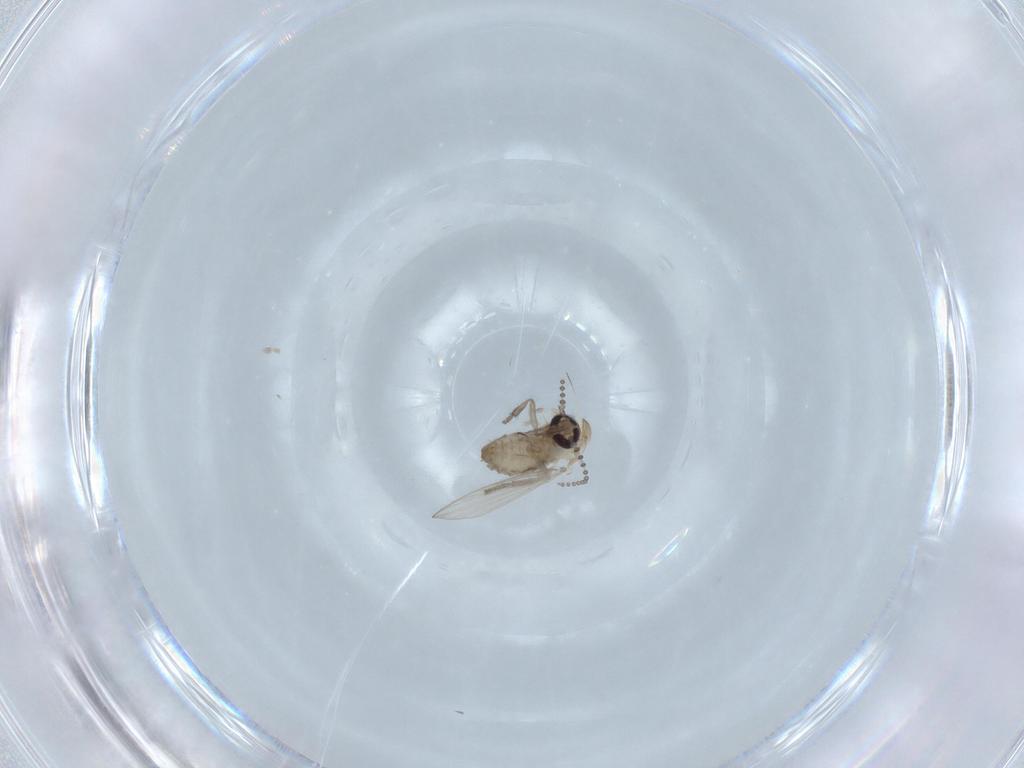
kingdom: Animalia
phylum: Arthropoda
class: Insecta
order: Diptera
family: Psychodidae
